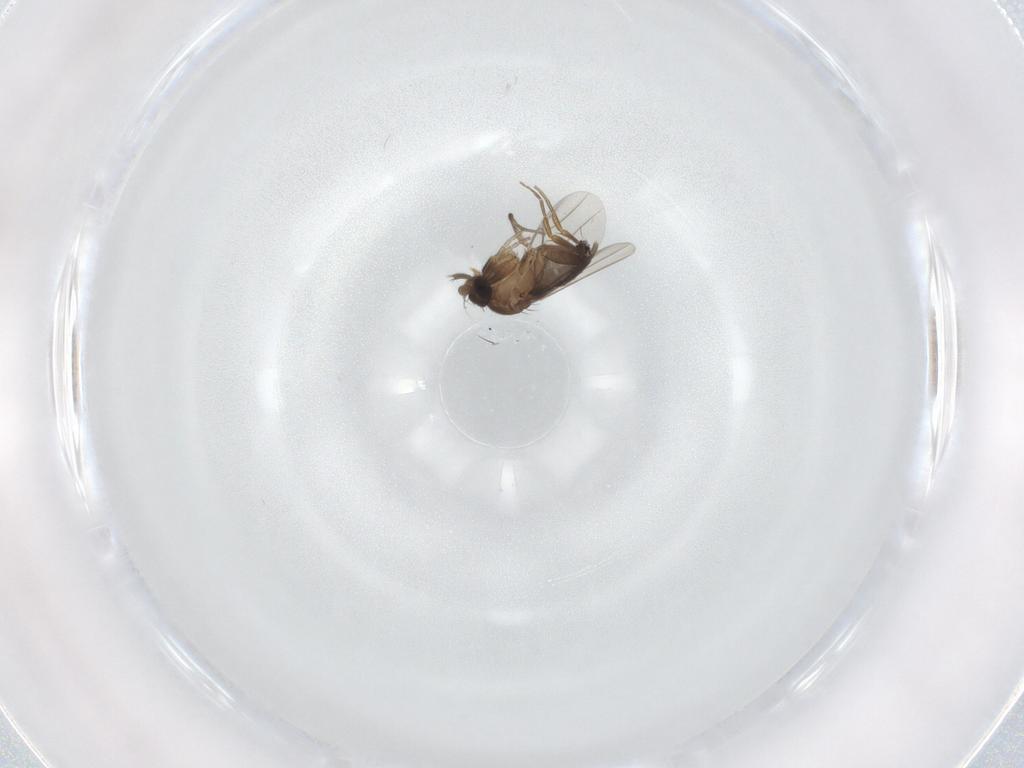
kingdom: Animalia
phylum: Arthropoda
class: Insecta
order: Diptera
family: Phoridae
